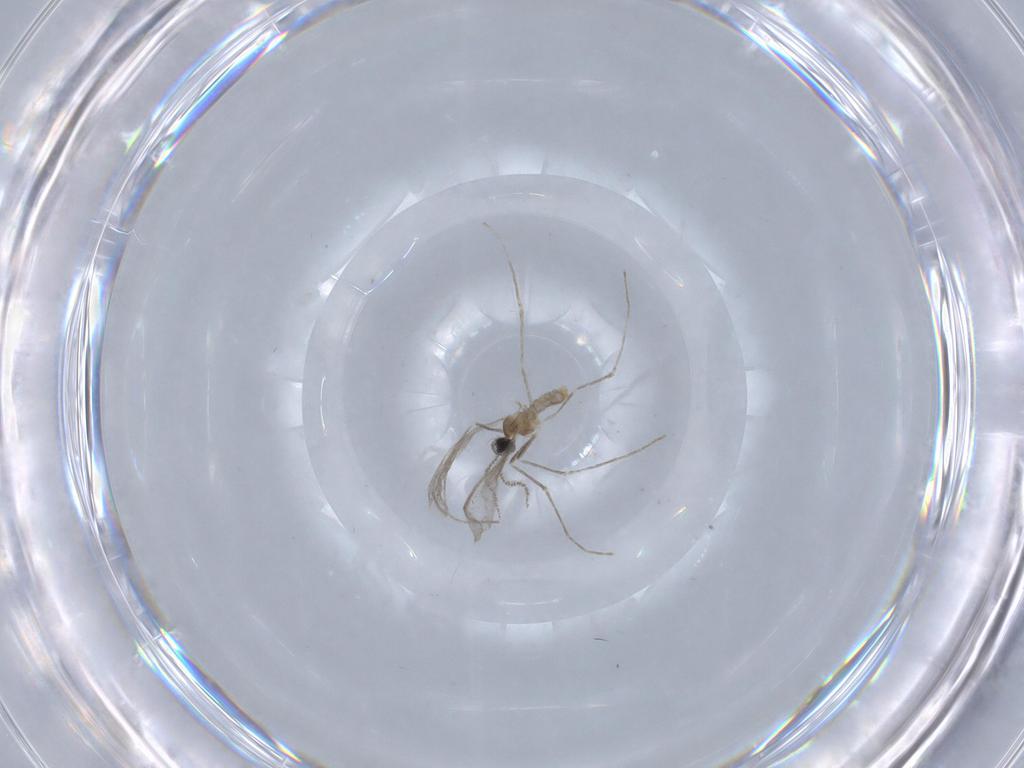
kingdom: Animalia
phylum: Arthropoda
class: Insecta
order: Diptera
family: Cecidomyiidae
